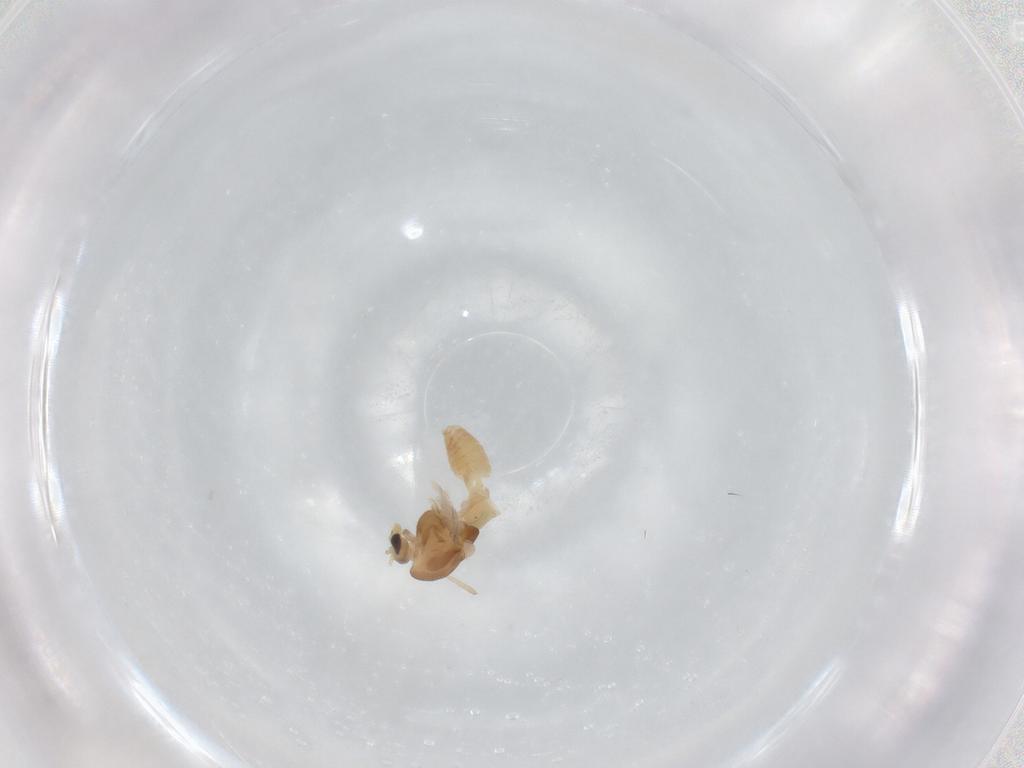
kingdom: Animalia
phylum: Arthropoda
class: Insecta
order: Diptera
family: Chironomidae
